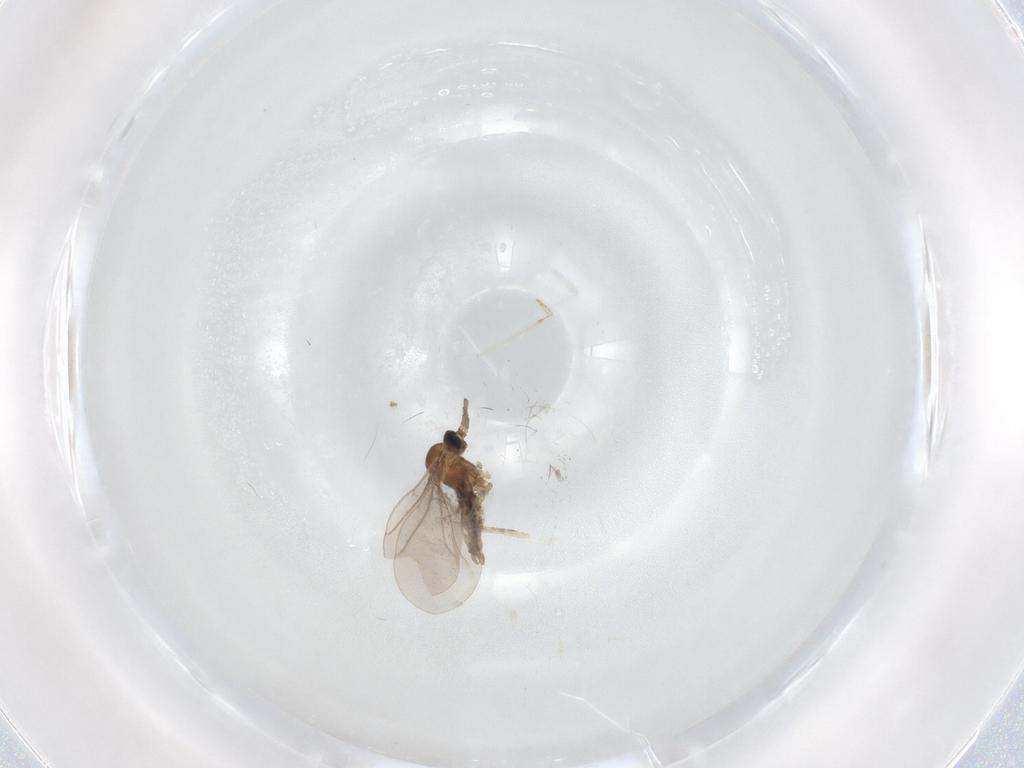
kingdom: Animalia
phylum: Arthropoda
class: Insecta
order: Diptera
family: Cecidomyiidae
